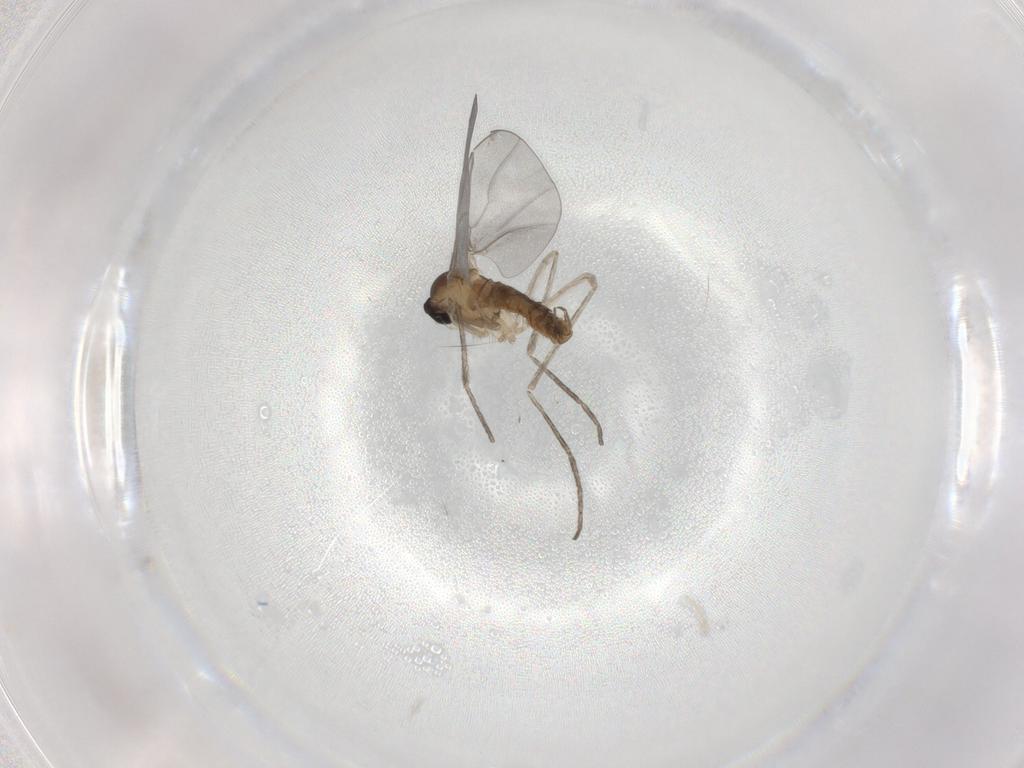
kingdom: Animalia
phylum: Arthropoda
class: Insecta
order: Diptera
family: Cecidomyiidae
